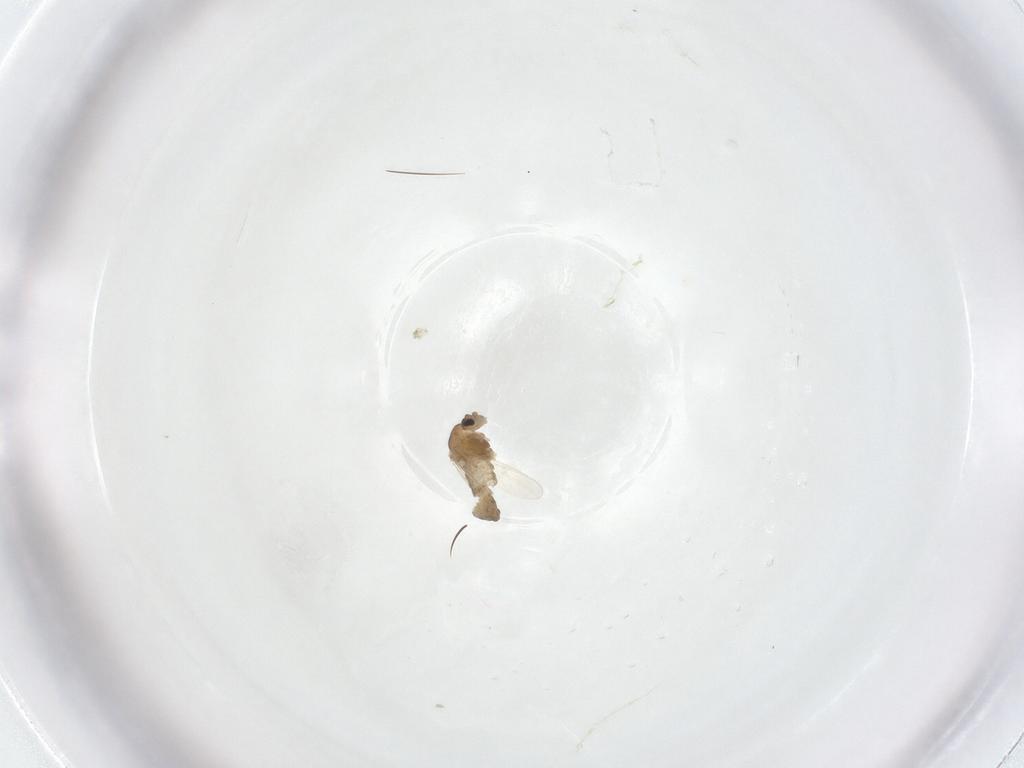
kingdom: Animalia
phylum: Arthropoda
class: Insecta
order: Diptera
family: Chironomidae
